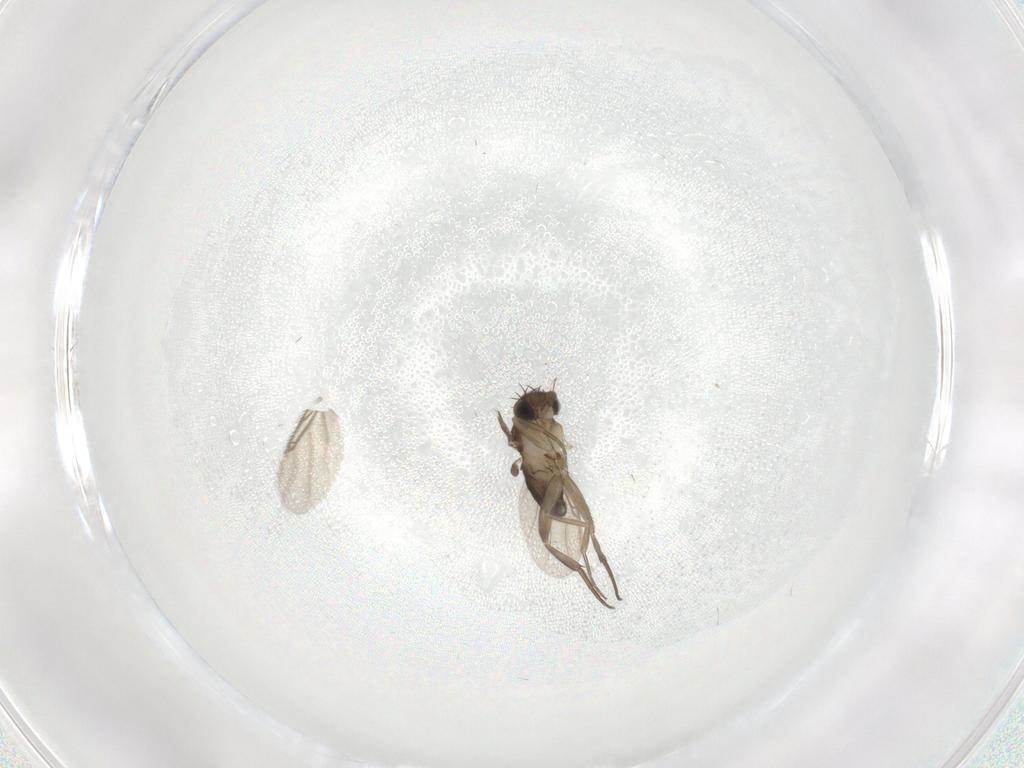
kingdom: Animalia
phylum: Arthropoda
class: Insecta
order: Diptera
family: Phoridae
